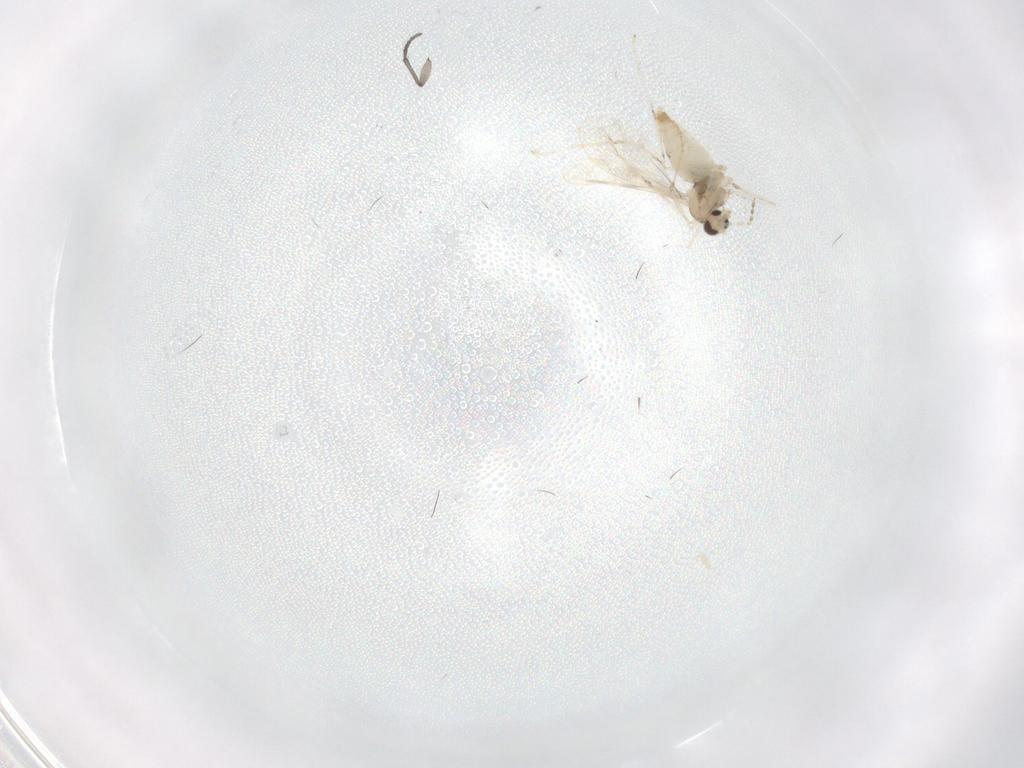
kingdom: Animalia
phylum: Arthropoda
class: Insecta
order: Diptera
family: Cecidomyiidae
